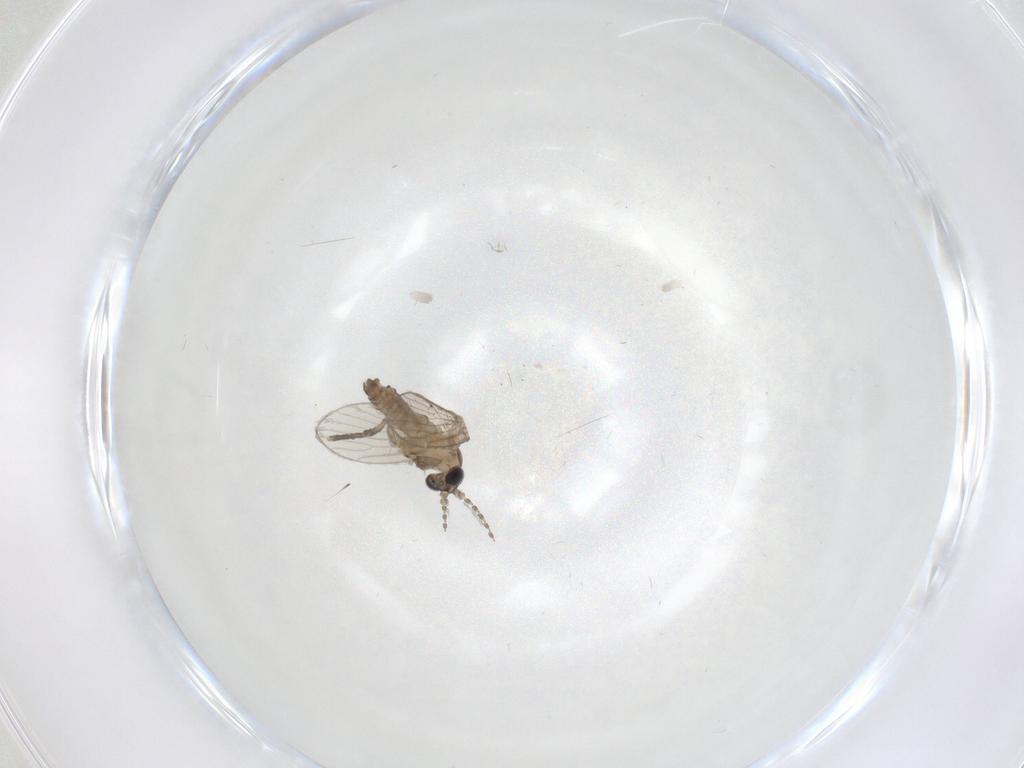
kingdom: Animalia
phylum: Arthropoda
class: Insecta
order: Diptera
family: Psychodidae
